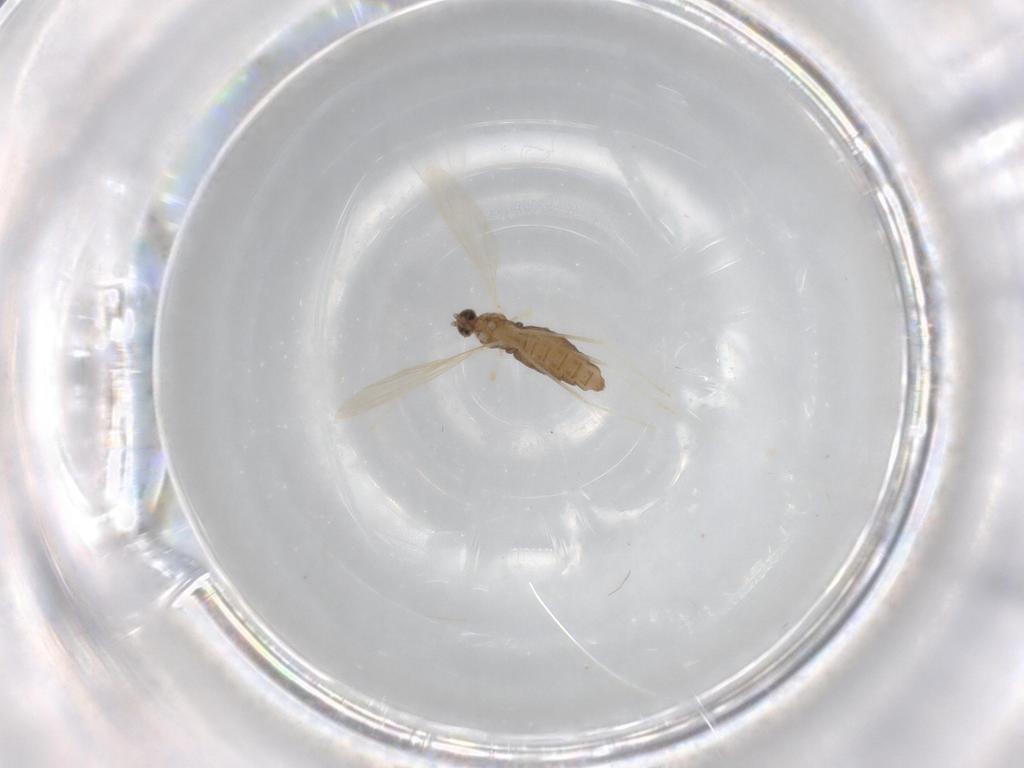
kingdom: Animalia
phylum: Arthropoda
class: Insecta
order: Diptera
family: Cecidomyiidae
